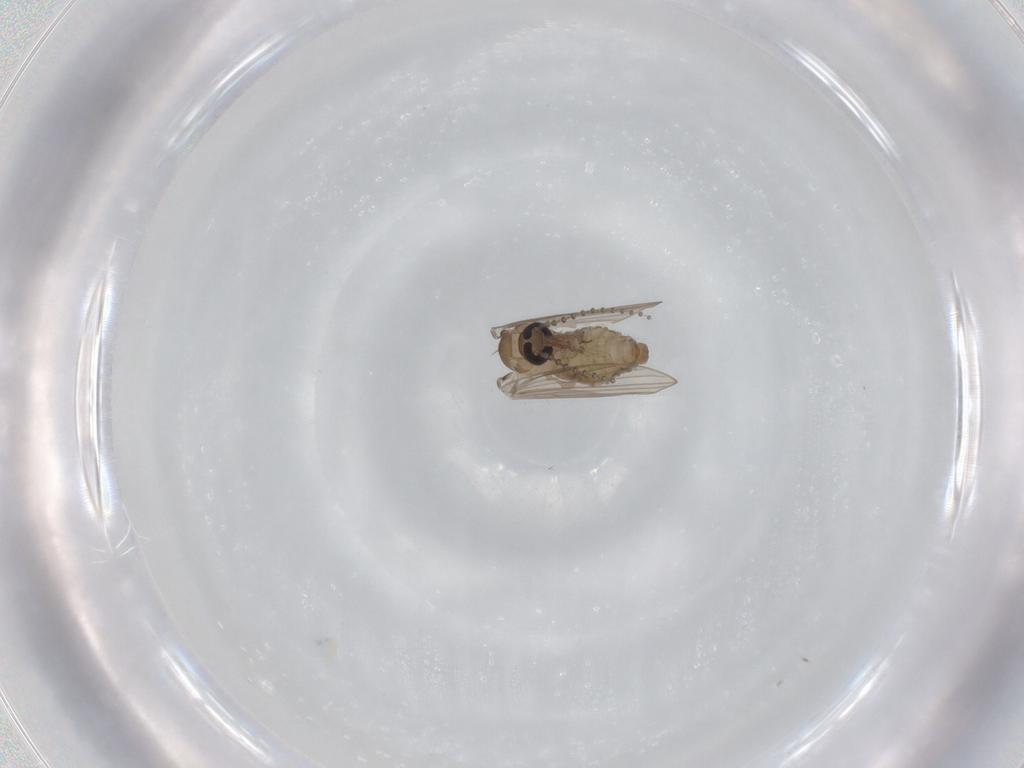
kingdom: Animalia
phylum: Arthropoda
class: Insecta
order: Diptera
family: Psychodidae
